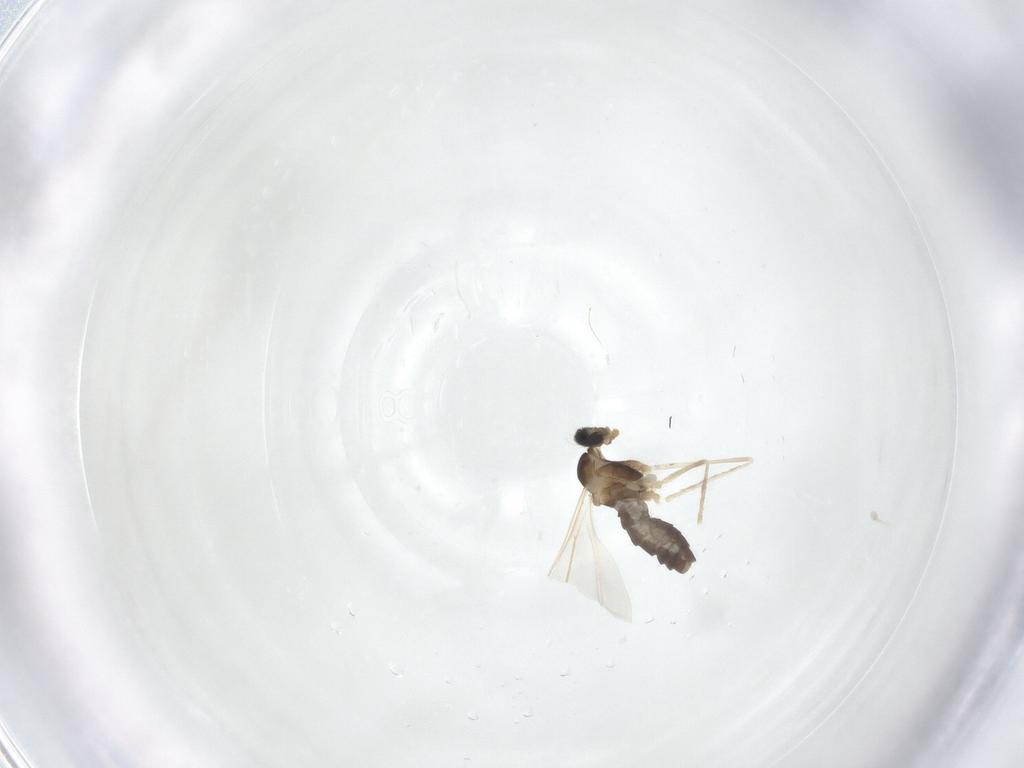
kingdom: Animalia
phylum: Arthropoda
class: Insecta
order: Diptera
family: Cecidomyiidae
